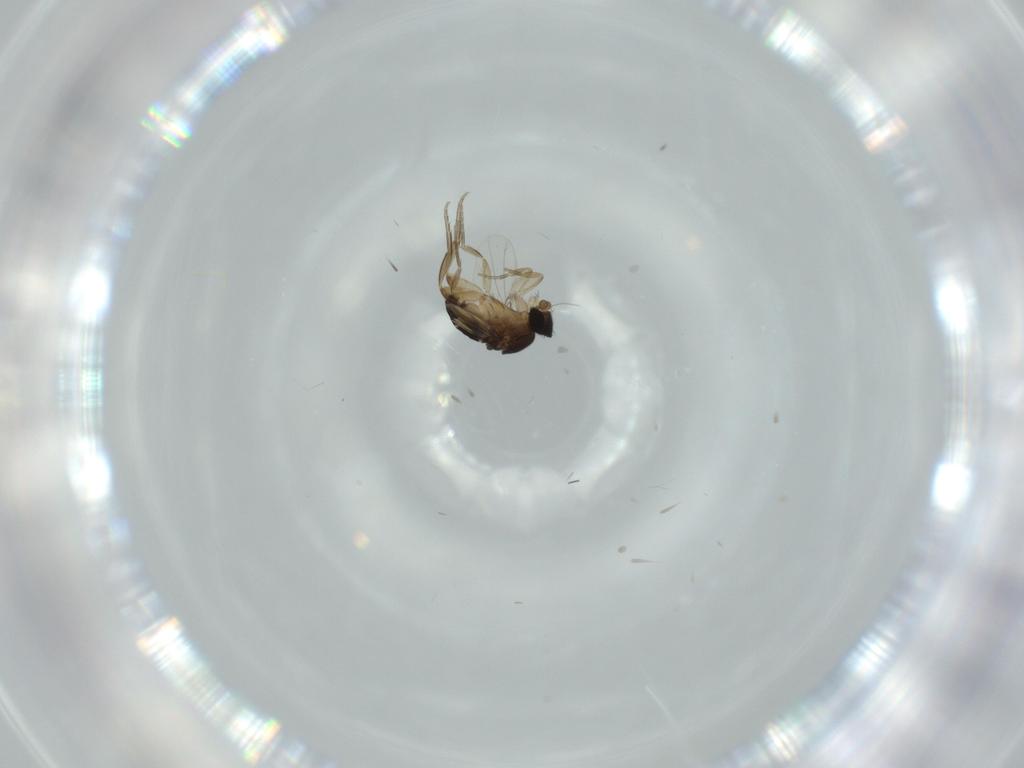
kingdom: Animalia
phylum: Arthropoda
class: Insecta
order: Diptera
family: Phoridae
